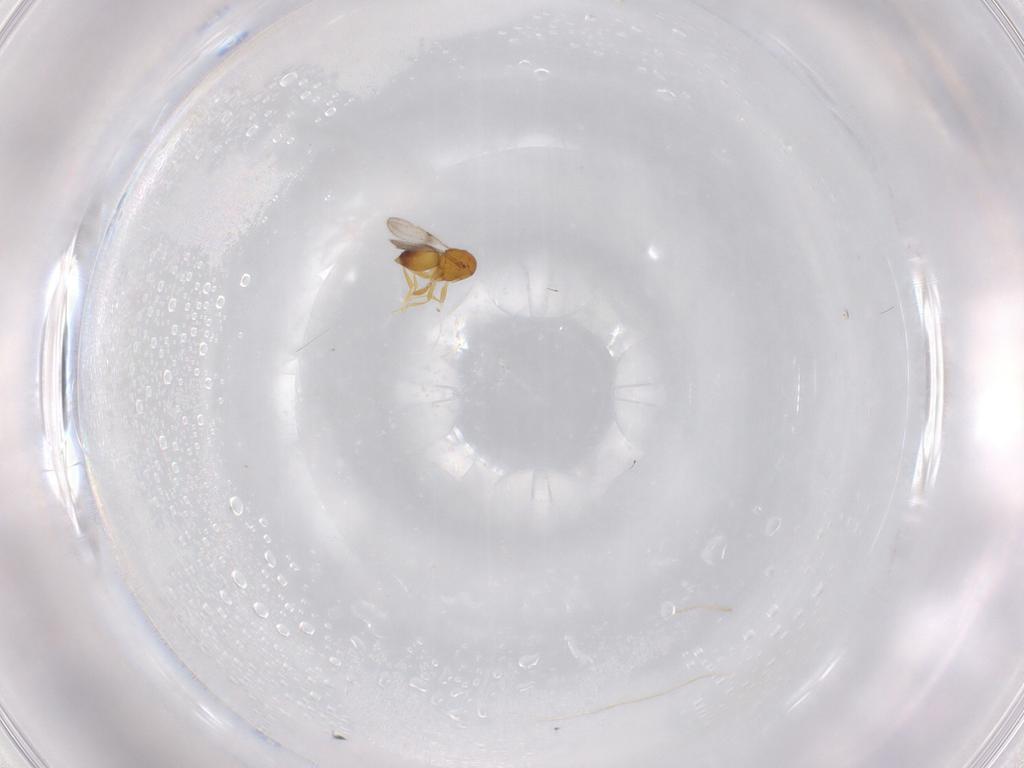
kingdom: Animalia
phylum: Arthropoda
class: Insecta
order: Hymenoptera
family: Ceraphronidae
